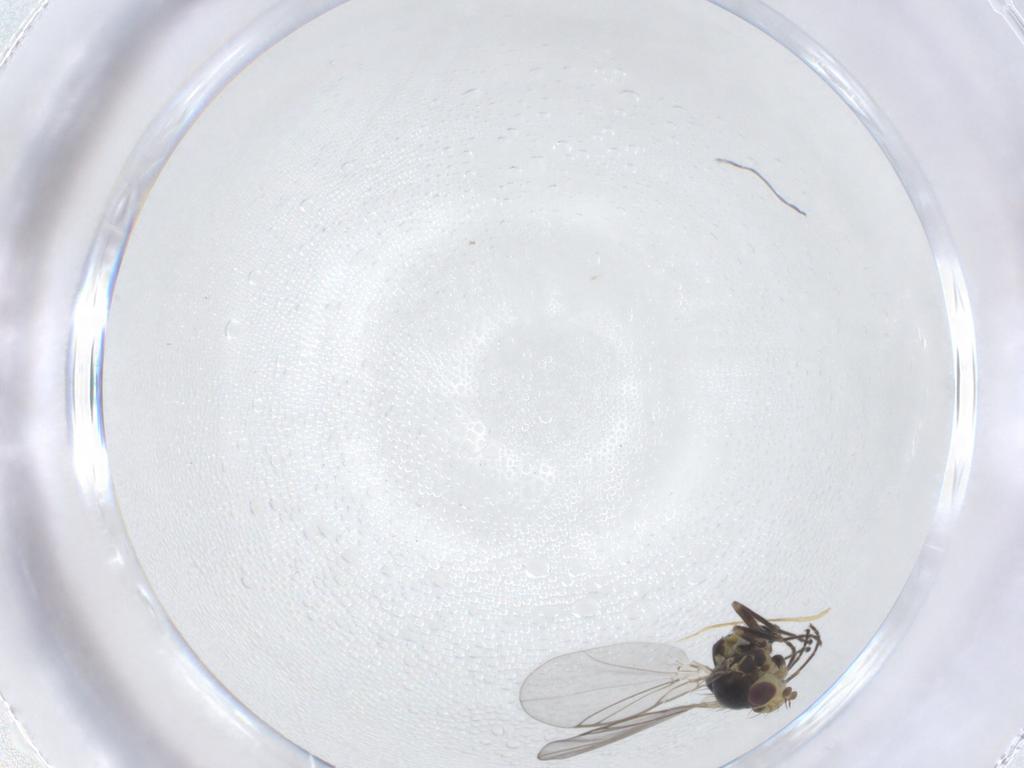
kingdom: Animalia
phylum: Arthropoda
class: Insecta
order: Diptera
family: Agromyzidae
